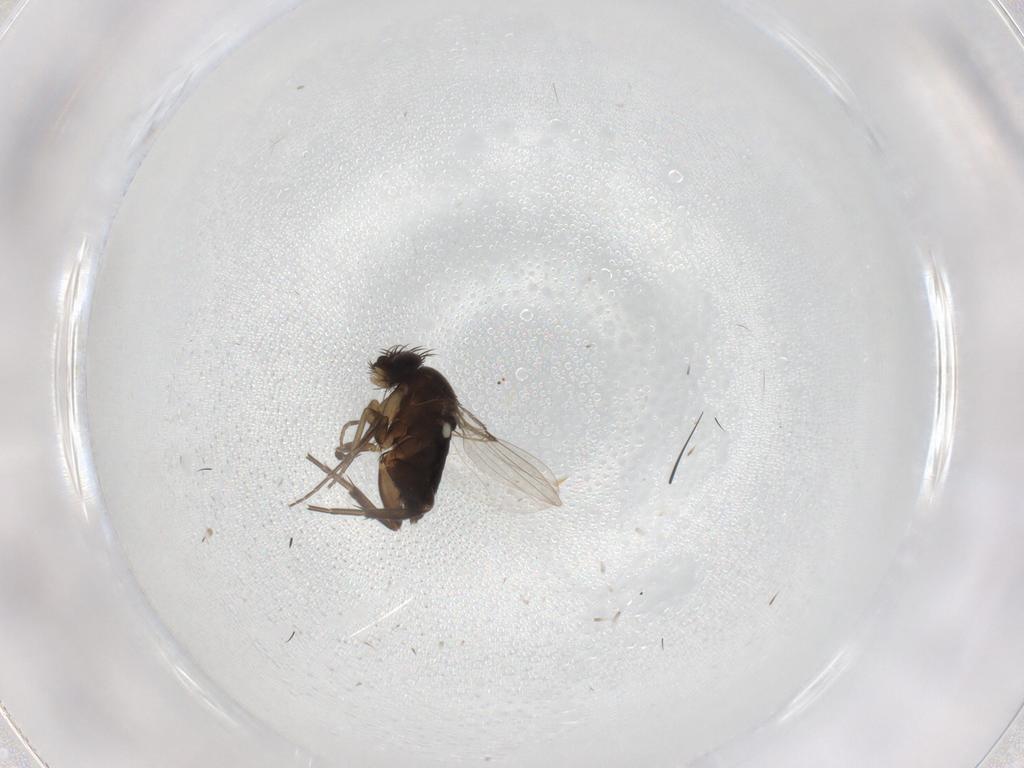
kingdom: Animalia
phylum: Arthropoda
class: Insecta
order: Diptera
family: Phoridae
